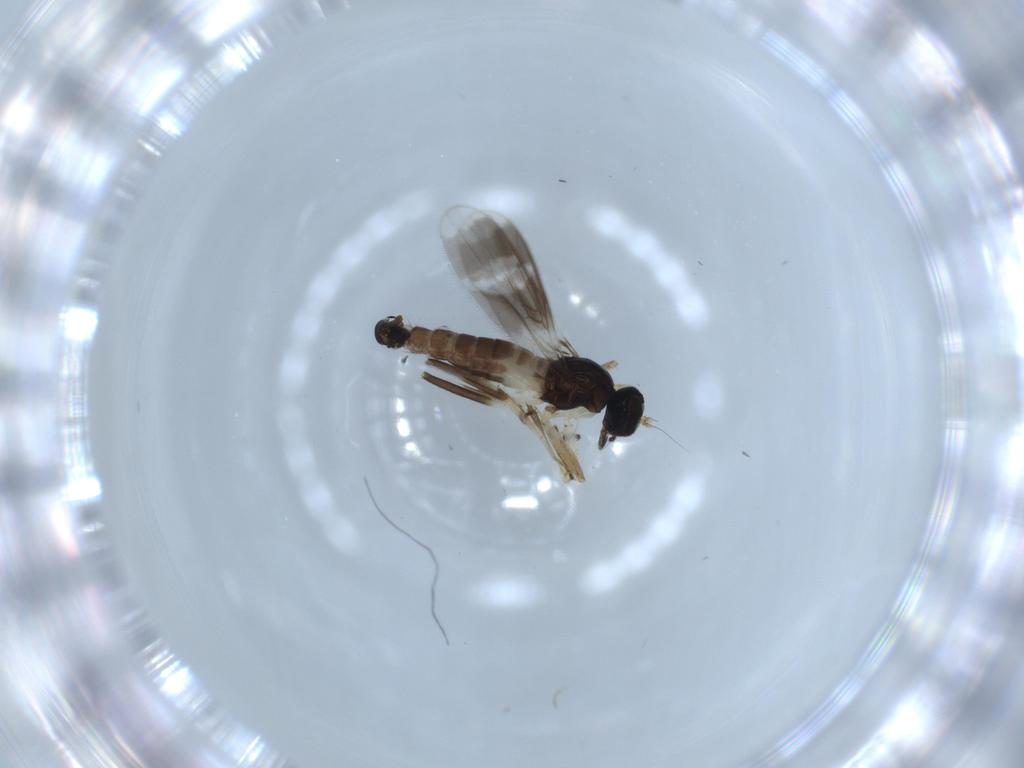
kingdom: Animalia
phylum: Arthropoda
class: Insecta
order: Diptera
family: Hybotidae
